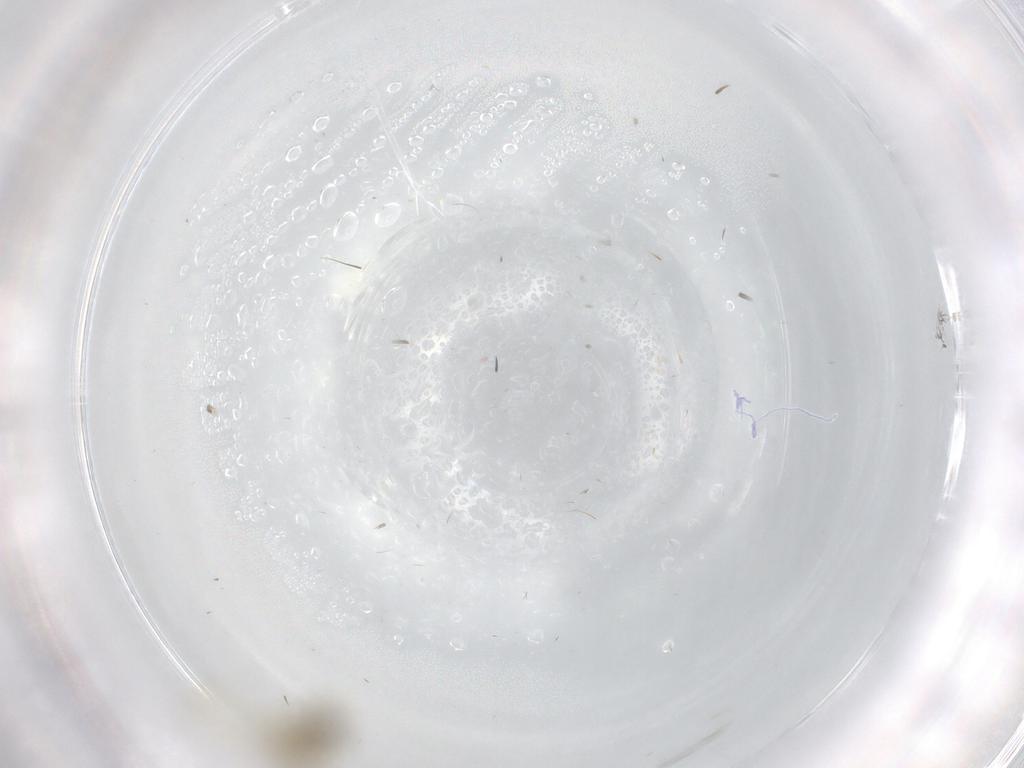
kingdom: Animalia
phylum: Arthropoda
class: Insecta
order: Diptera
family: Chironomidae
